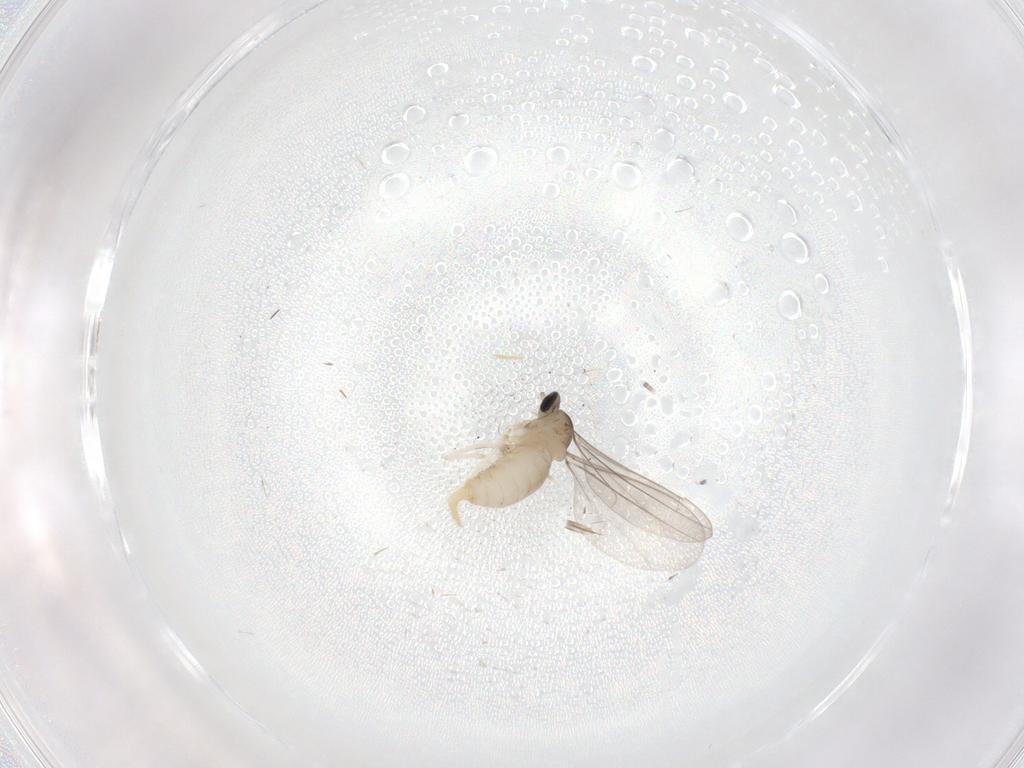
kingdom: Animalia
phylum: Arthropoda
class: Insecta
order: Diptera
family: Cecidomyiidae
